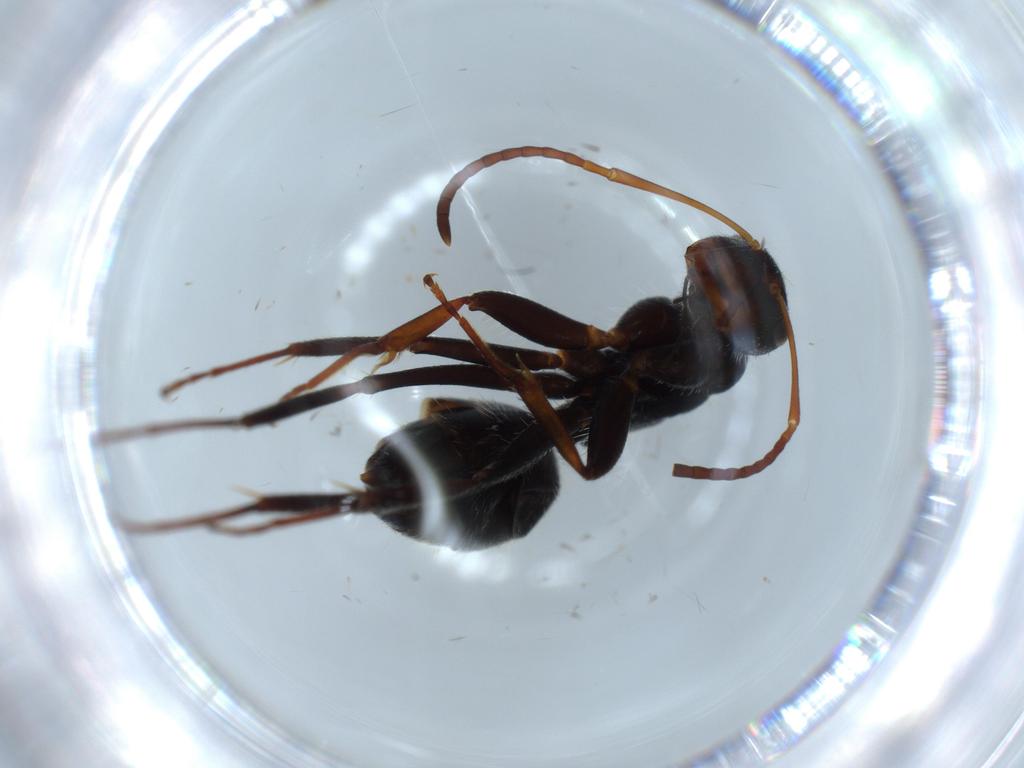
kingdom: Animalia
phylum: Arthropoda
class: Insecta
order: Hymenoptera
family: Formicidae
